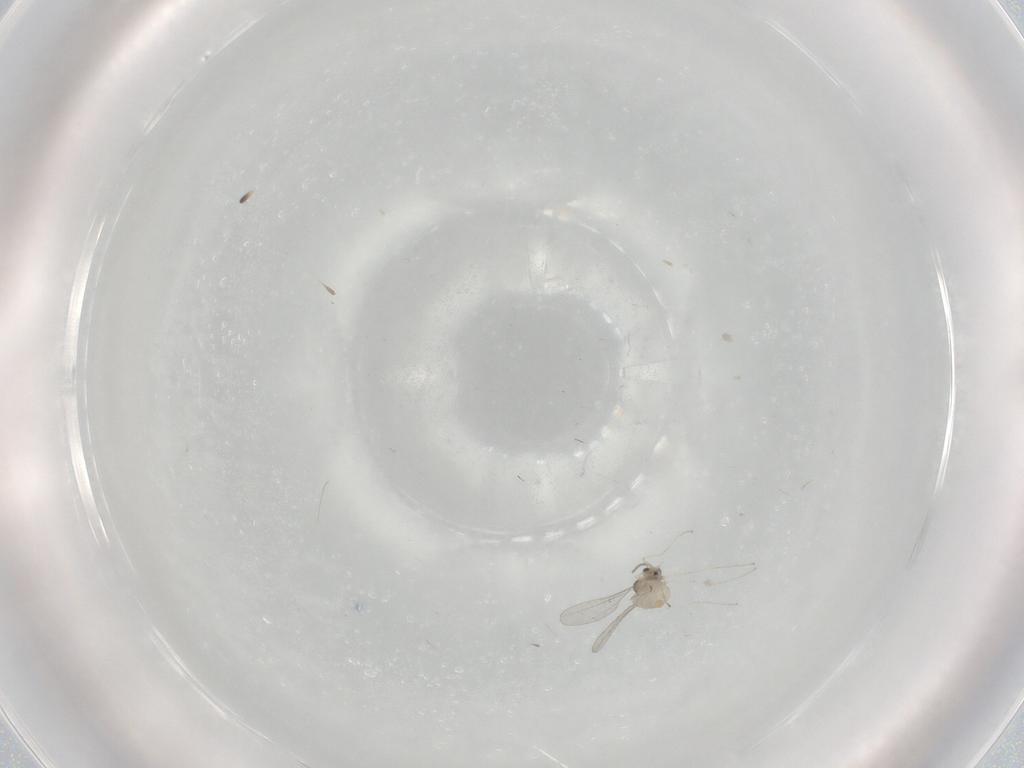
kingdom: Animalia
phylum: Arthropoda
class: Insecta
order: Diptera
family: Cecidomyiidae
